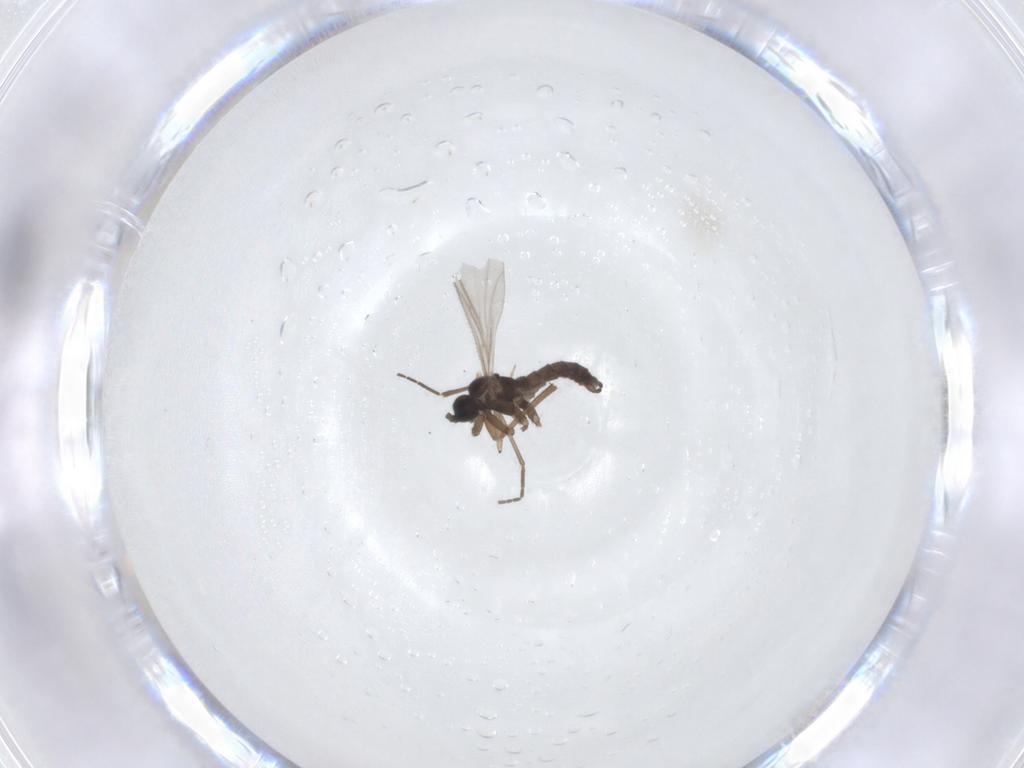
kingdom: Animalia
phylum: Arthropoda
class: Insecta
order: Diptera
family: Sciaridae
